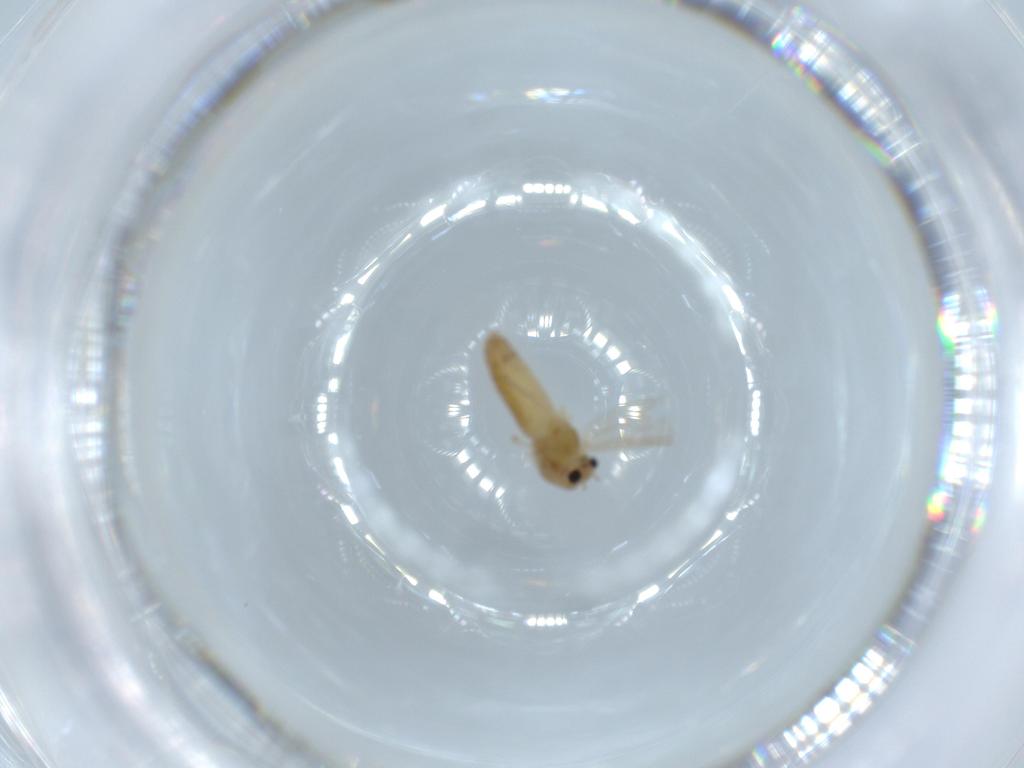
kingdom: Animalia
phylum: Arthropoda
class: Insecta
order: Diptera
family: Chironomidae
